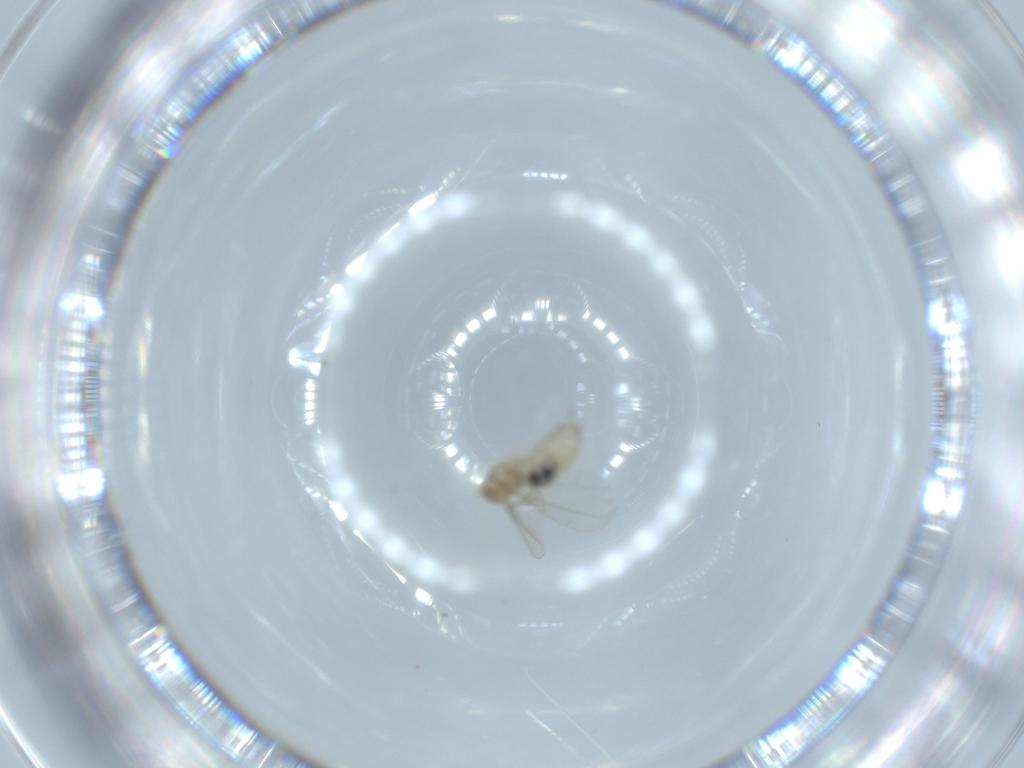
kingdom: Animalia
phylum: Arthropoda
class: Insecta
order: Diptera
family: Cecidomyiidae
